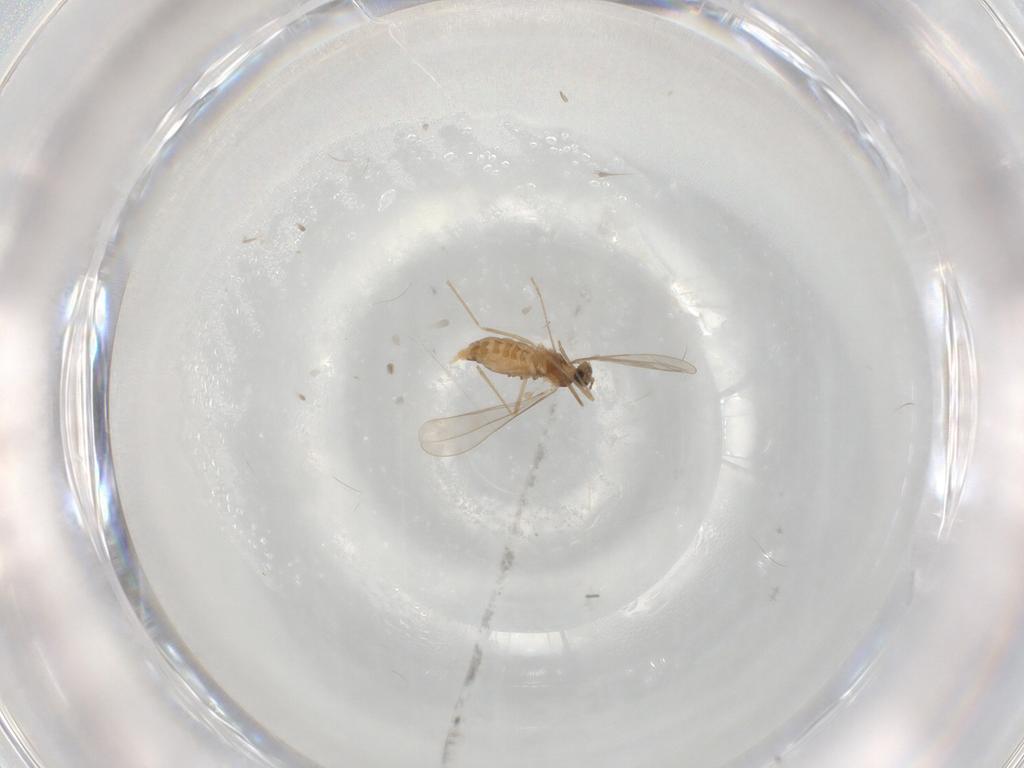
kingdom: Animalia
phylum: Arthropoda
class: Insecta
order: Diptera
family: Cecidomyiidae
